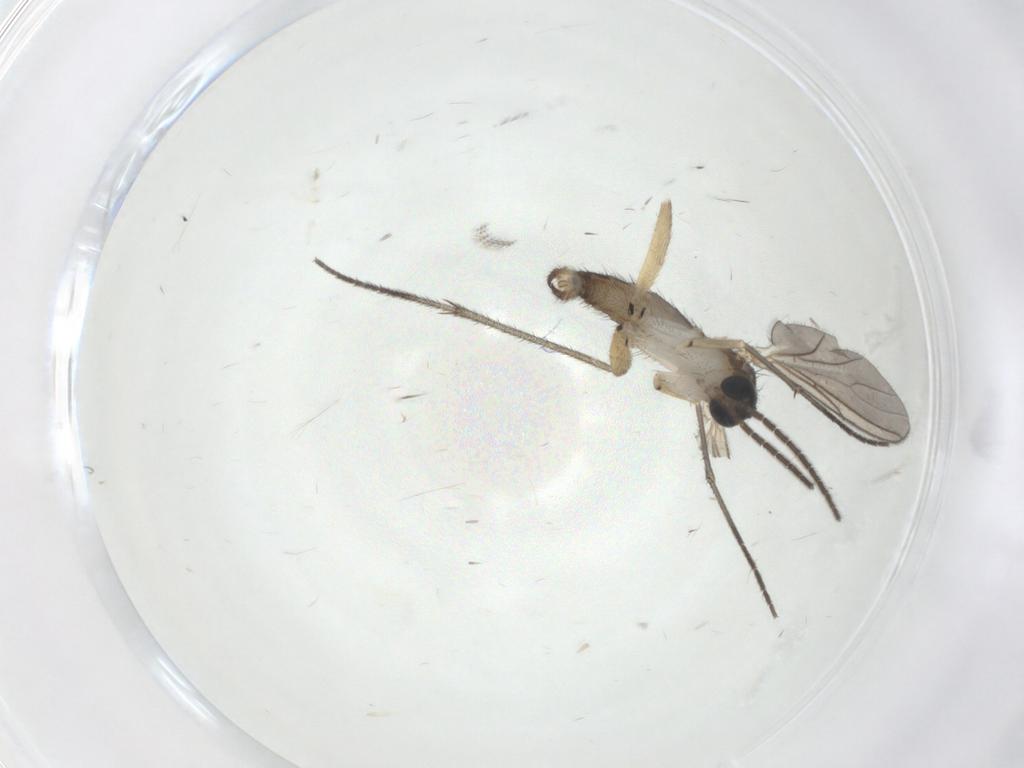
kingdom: Animalia
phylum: Arthropoda
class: Insecta
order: Diptera
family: Sciaridae
